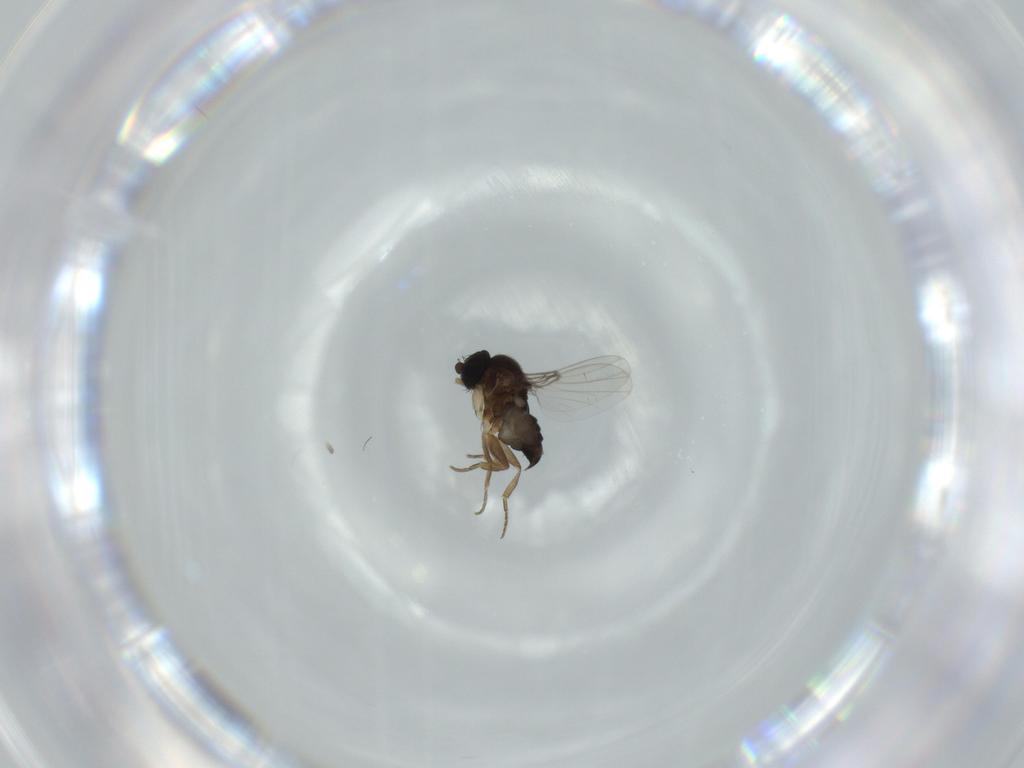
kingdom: Animalia
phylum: Arthropoda
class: Insecta
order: Diptera
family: Phoridae
